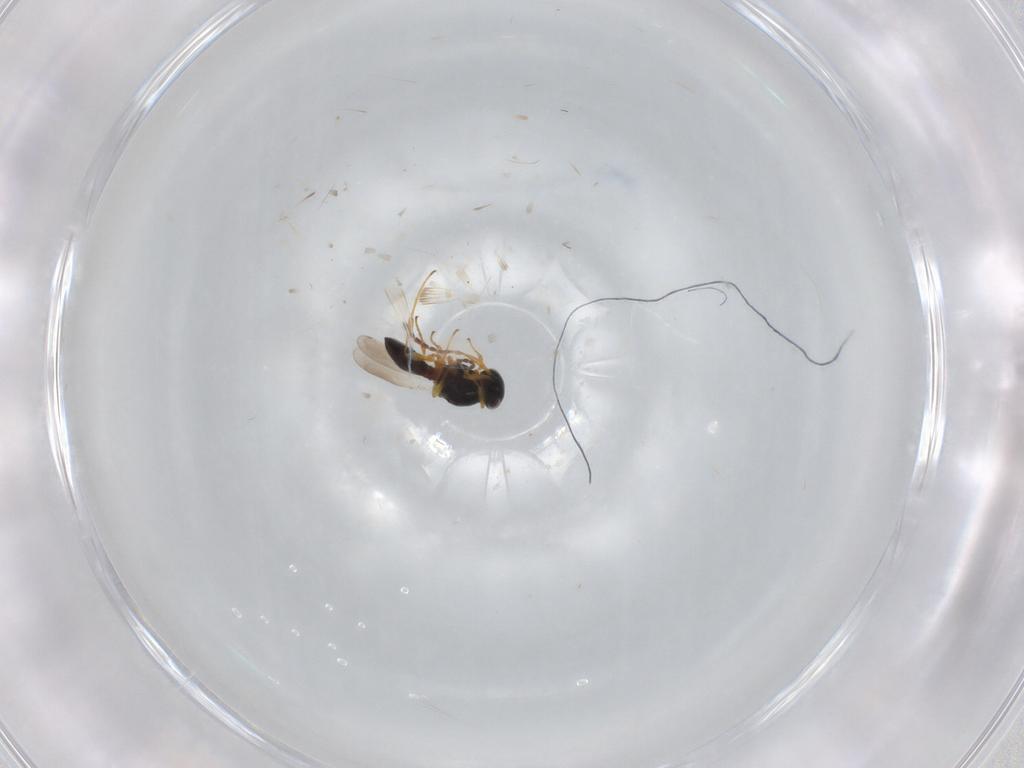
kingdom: Animalia
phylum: Arthropoda
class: Insecta
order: Hymenoptera
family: Platygastridae
